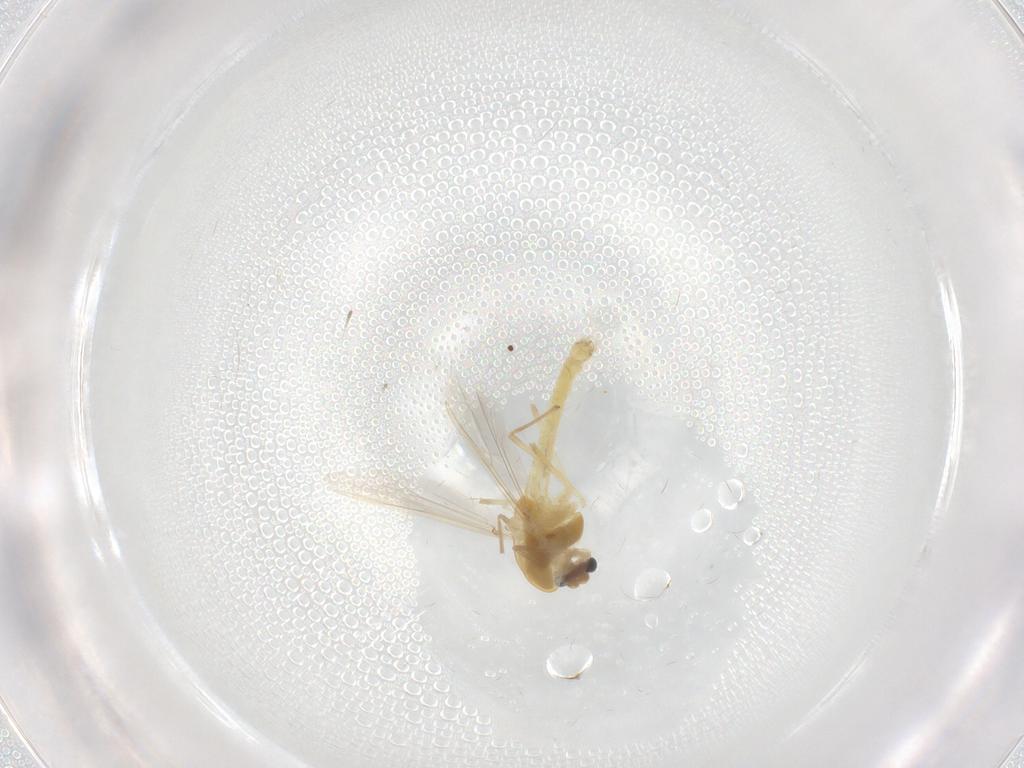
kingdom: Animalia
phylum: Arthropoda
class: Insecta
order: Diptera
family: Chironomidae
